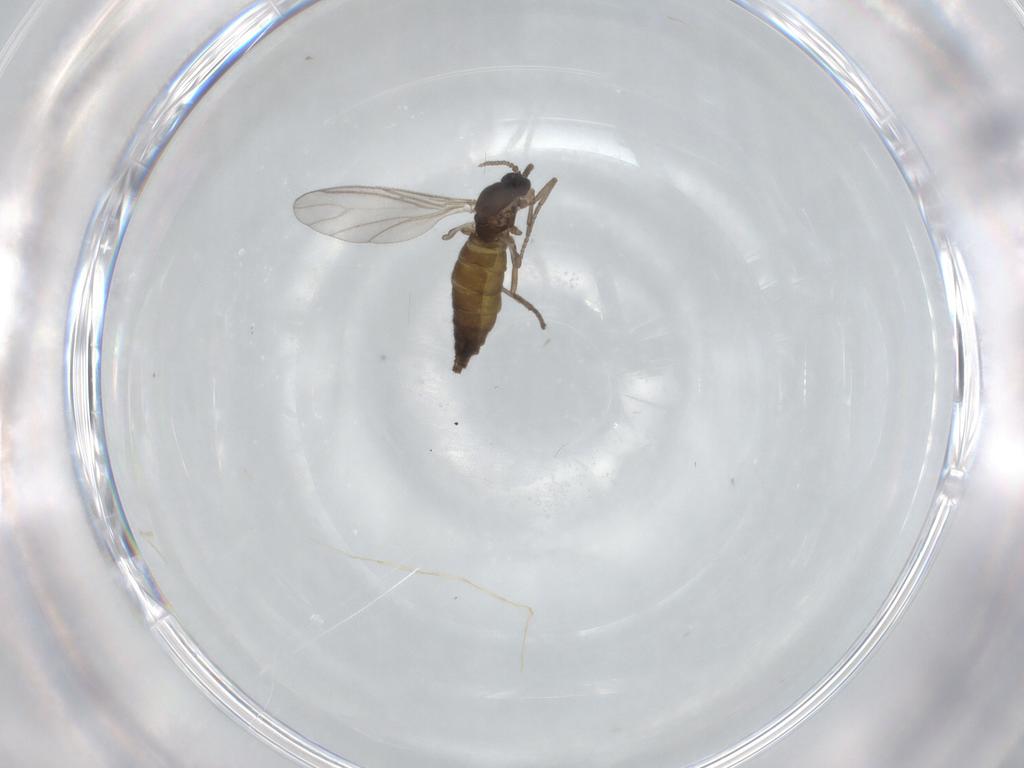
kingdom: Animalia
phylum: Arthropoda
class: Insecta
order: Diptera
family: Sciaridae
